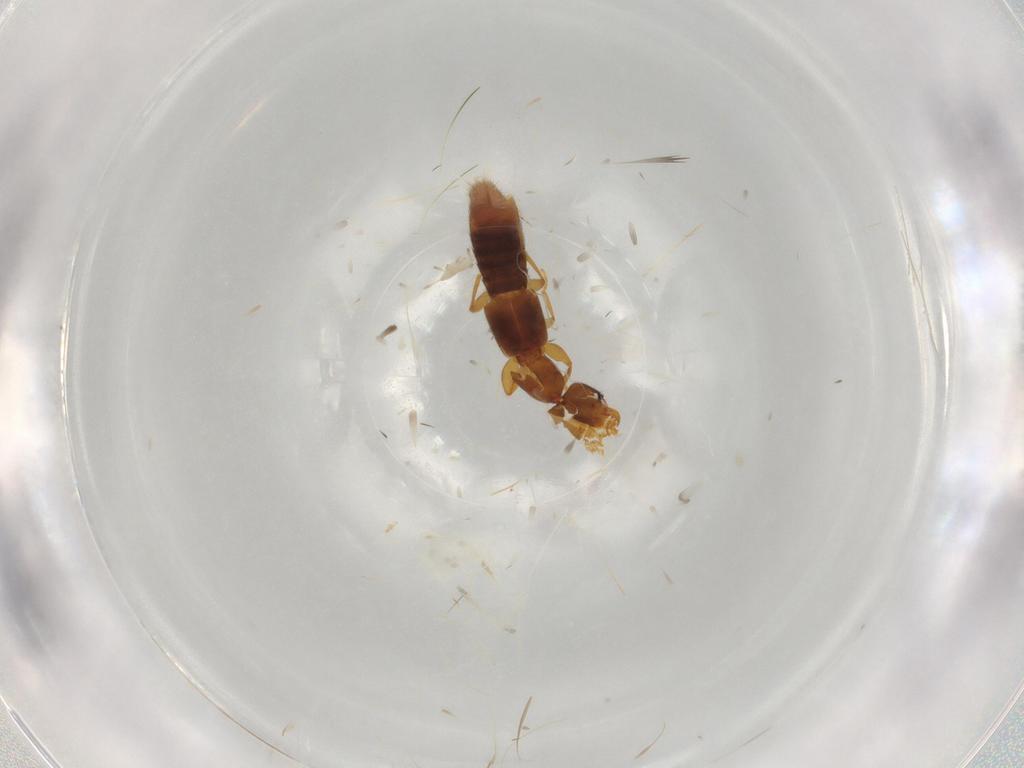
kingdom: Animalia
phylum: Arthropoda
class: Insecta
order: Coleoptera
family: Staphylinidae
